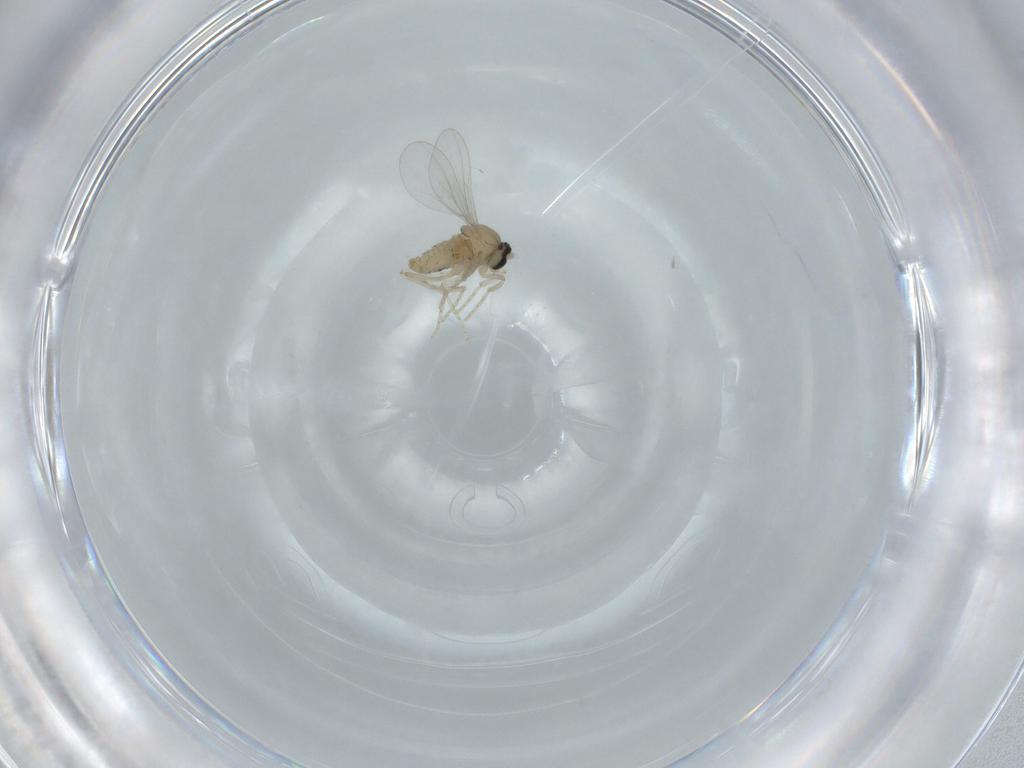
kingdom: Animalia
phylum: Arthropoda
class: Insecta
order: Diptera
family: Cecidomyiidae
